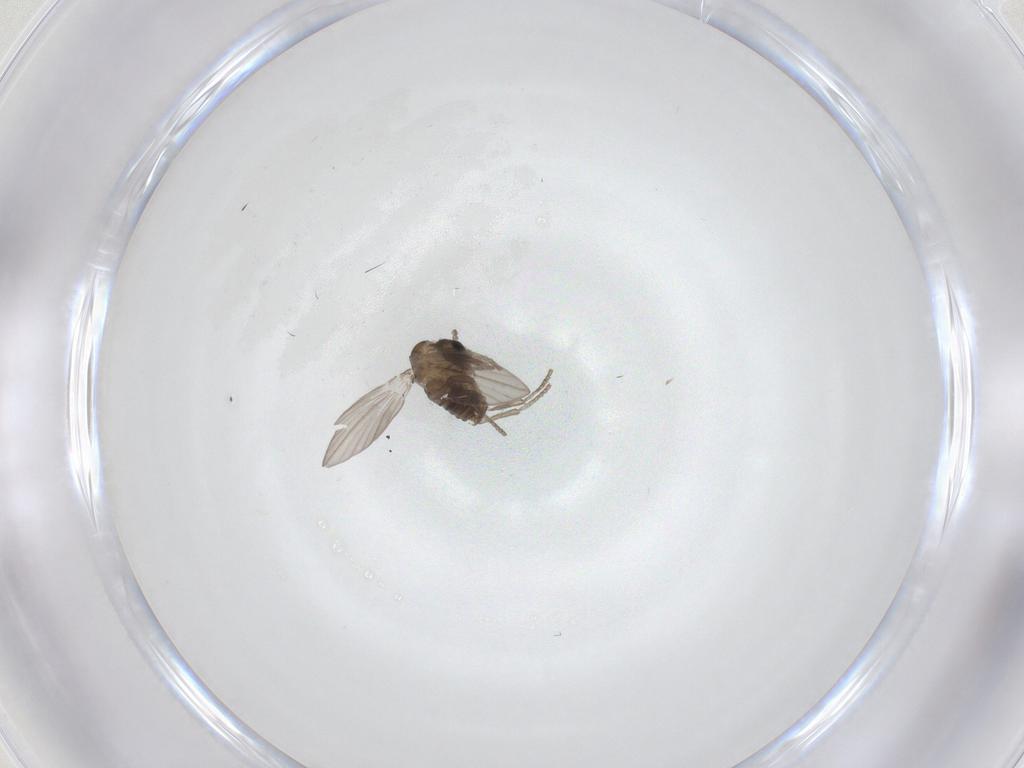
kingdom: Animalia
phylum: Arthropoda
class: Insecta
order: Diptera
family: Psychodidae
